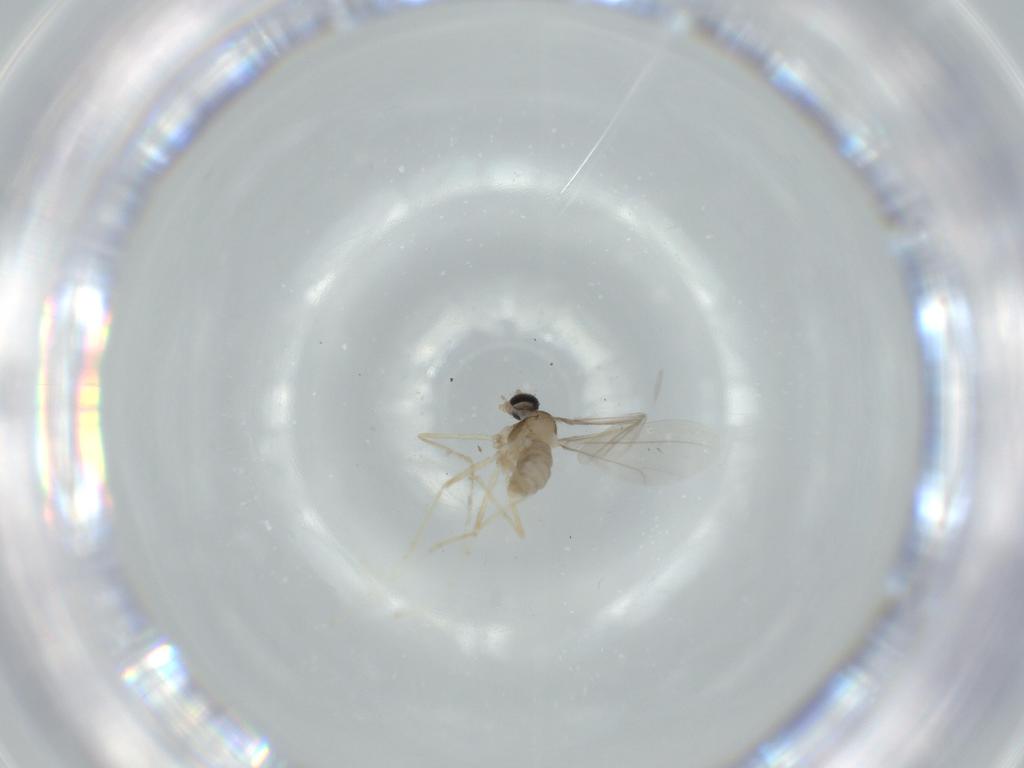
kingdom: Animalia
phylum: Arthropoda
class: Insecta
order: Diptera
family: Cecidomyiidae
